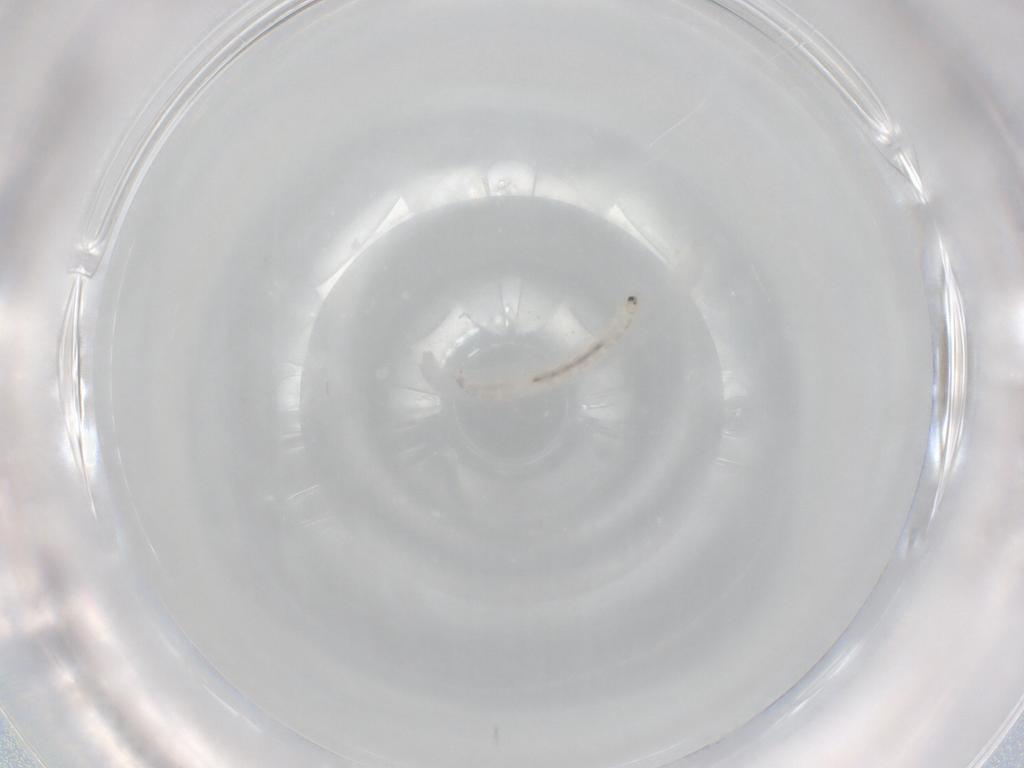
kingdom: Animalia
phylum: Arthropoda
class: Insecta
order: Diptera
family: Chironomidae
